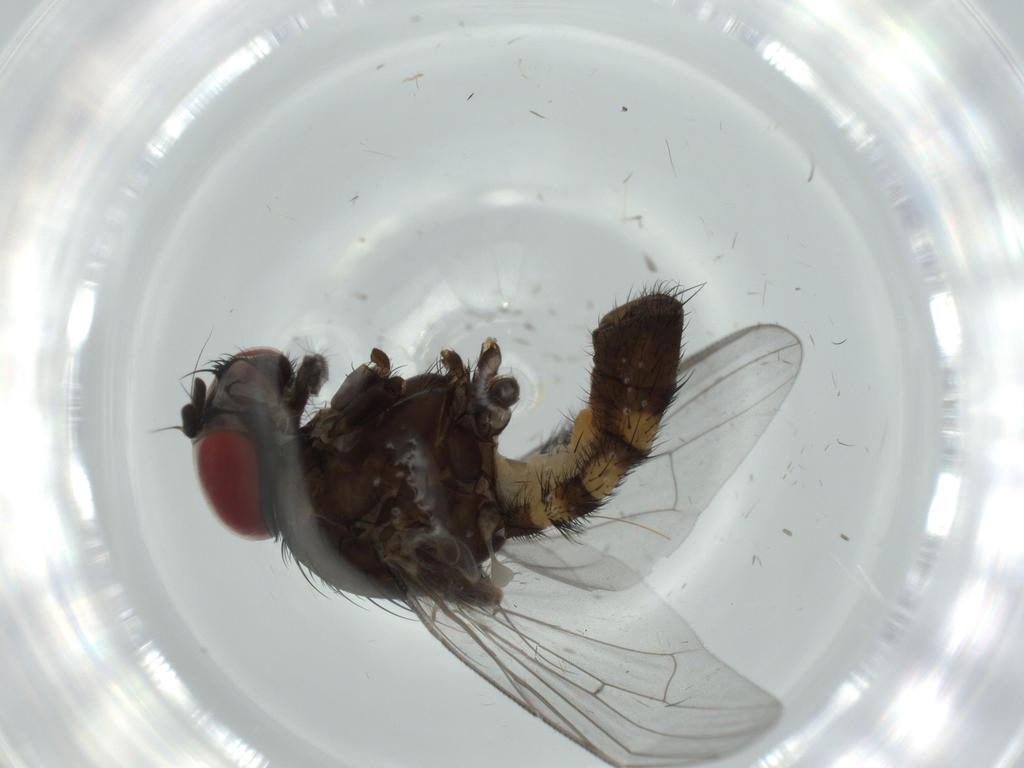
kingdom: Animalia
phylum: Arthropoda
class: Insecta
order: Diptera
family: Fannia
